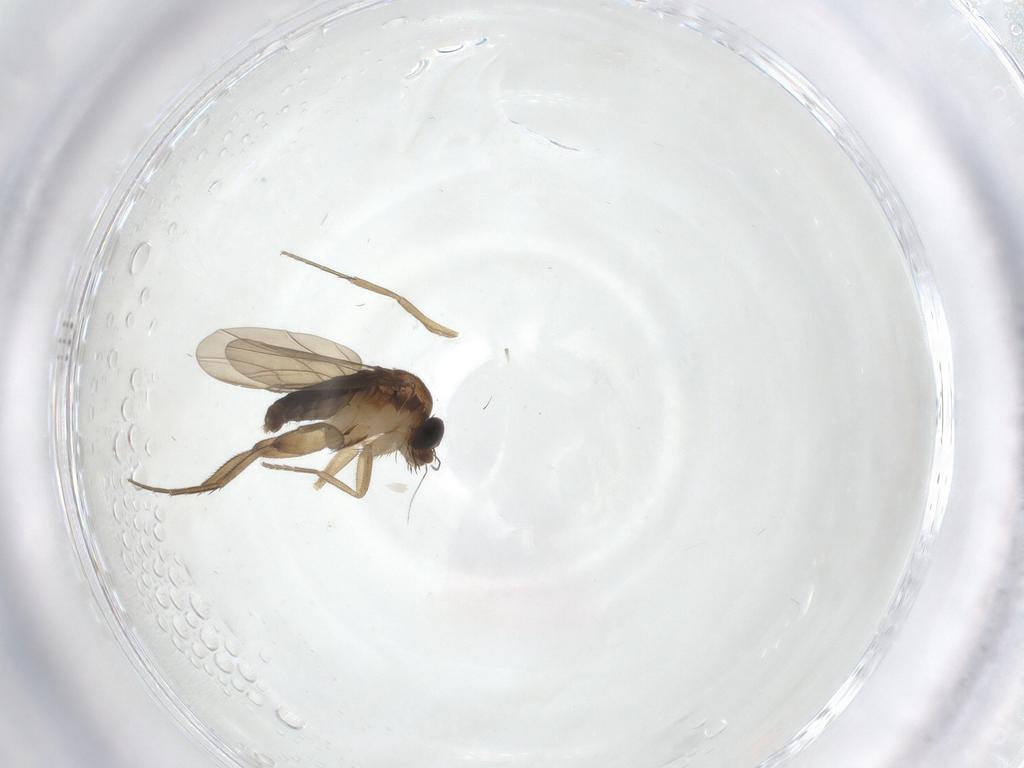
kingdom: Animalia
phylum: Arthropoda
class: Insecta
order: Diptera
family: Phoridae
